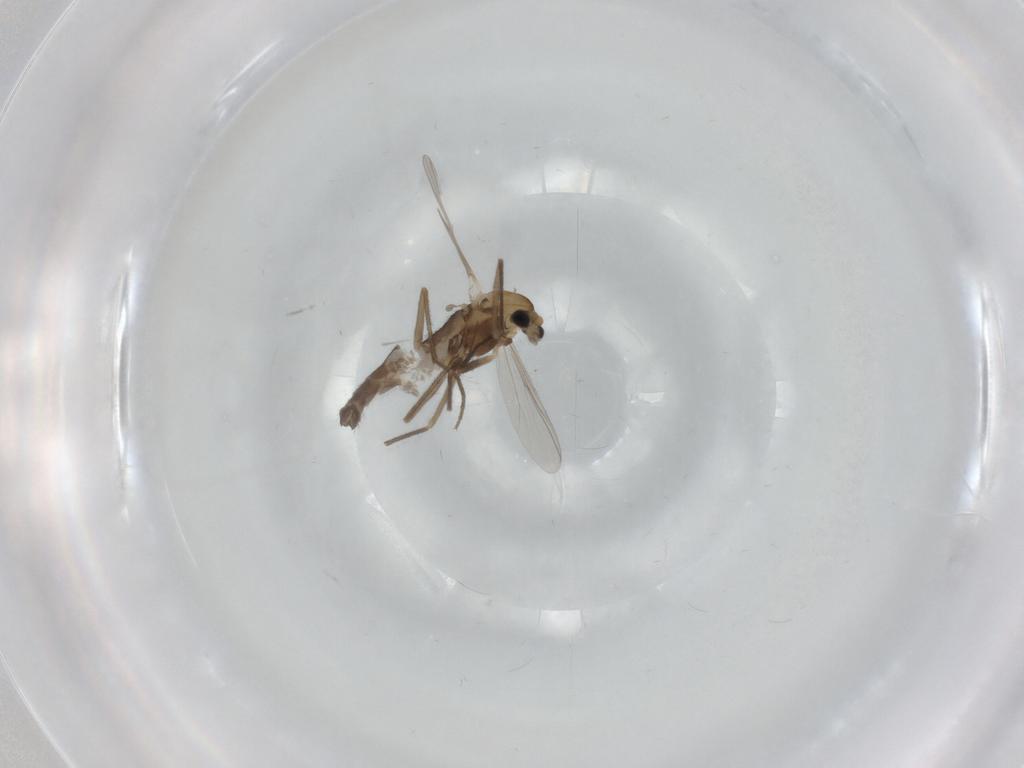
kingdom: Animalia
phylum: Arthropoda
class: Insecta
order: Diptera
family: Chironomidae
